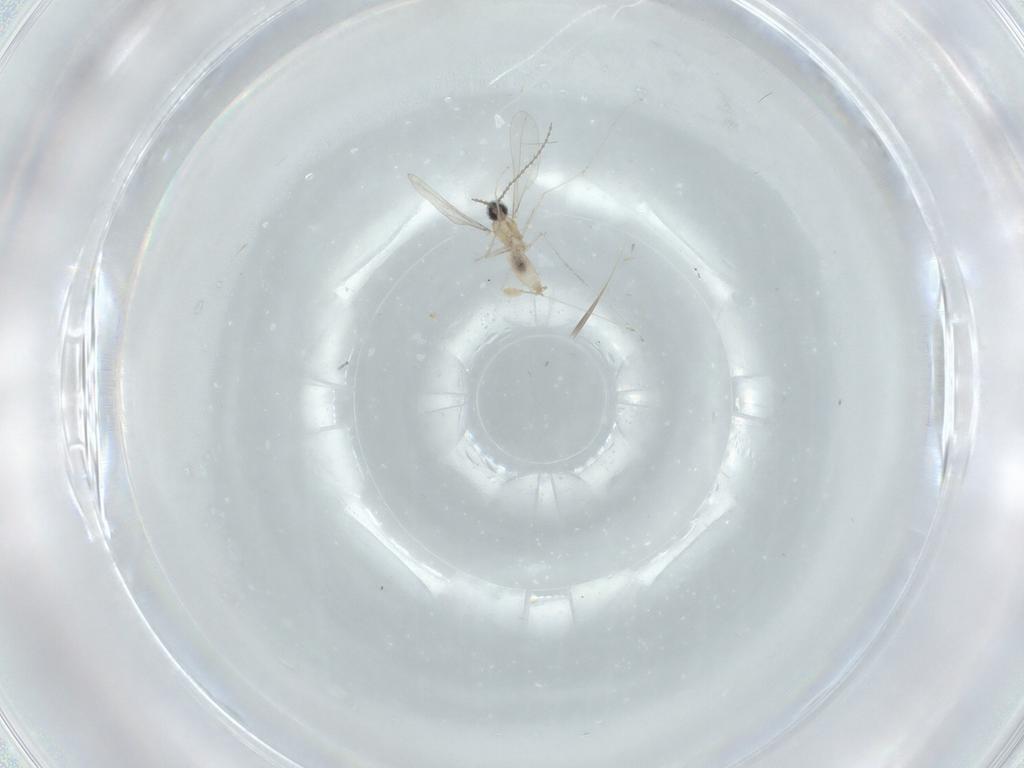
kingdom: Animalia
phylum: Arthropoda
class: Insecta
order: Diptera
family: Cecidomyiidae
